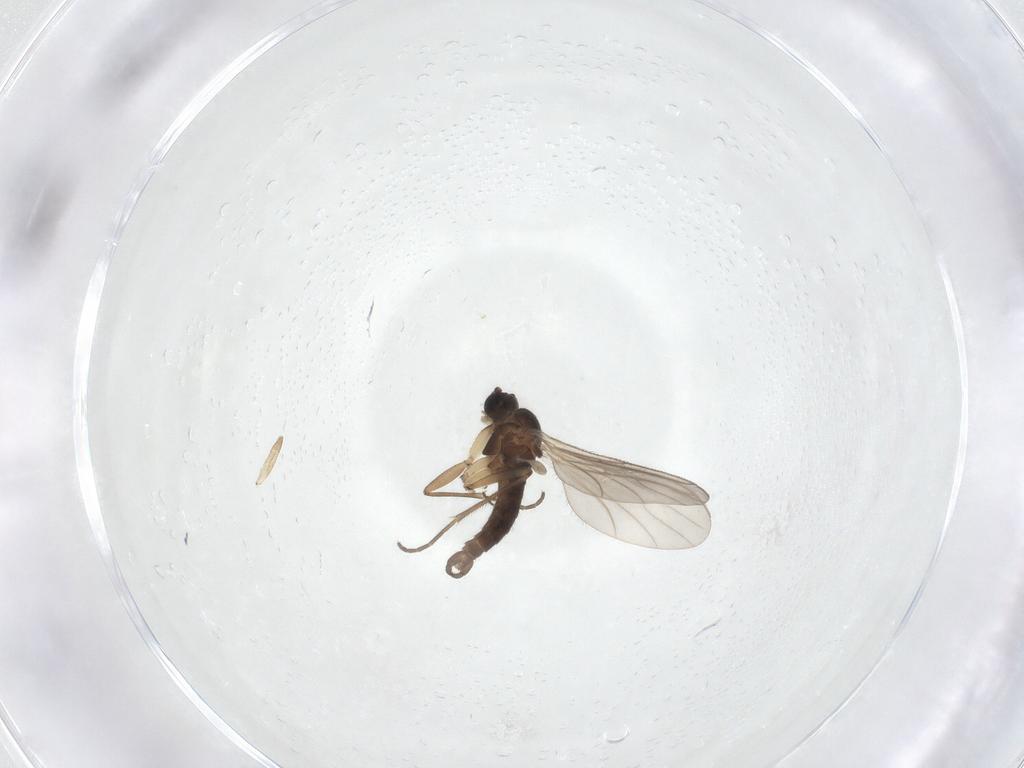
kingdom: Animalia
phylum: Arthropoda
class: Insecta
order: Diptera
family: Sciaridae
